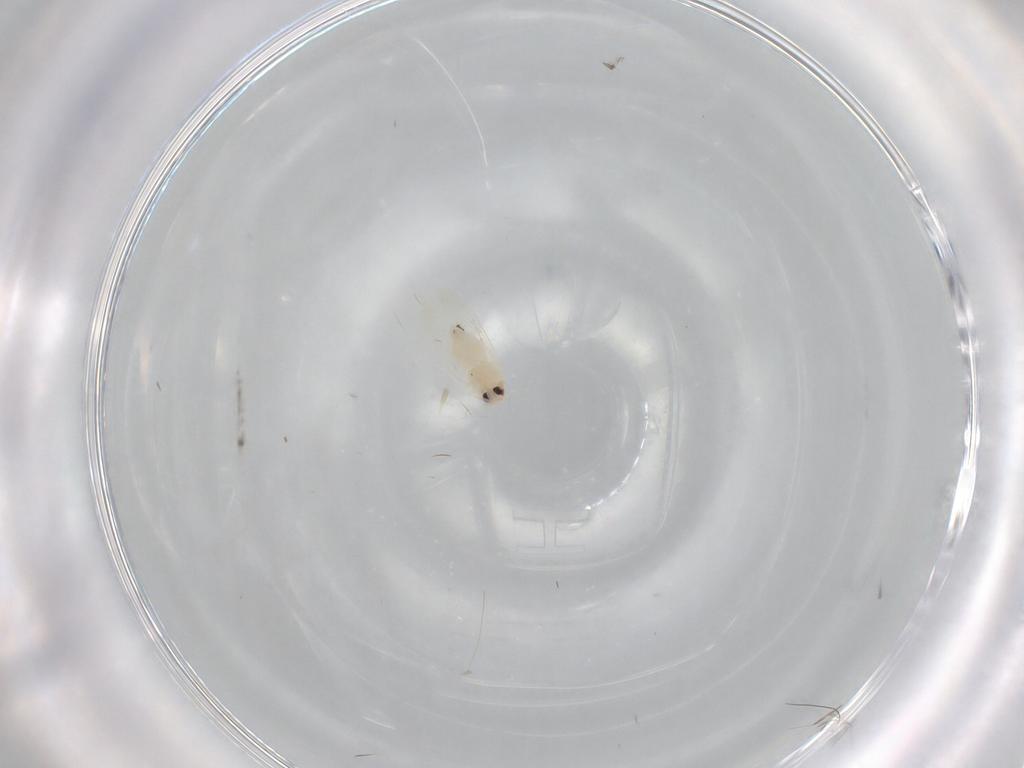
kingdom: Animalia
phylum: Arthropoda
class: Insecta
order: Hemiptera
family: Aleyrodidae
